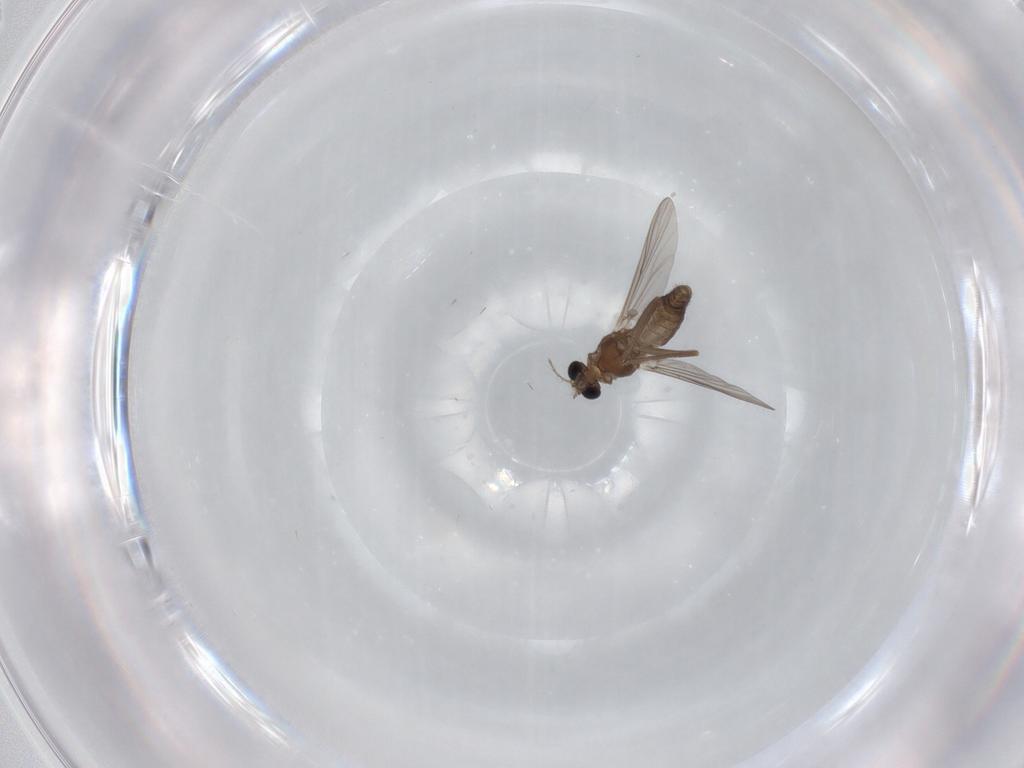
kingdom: Animalia
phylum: Arthropoda
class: Insecta
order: Diptera
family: Chironomidae
